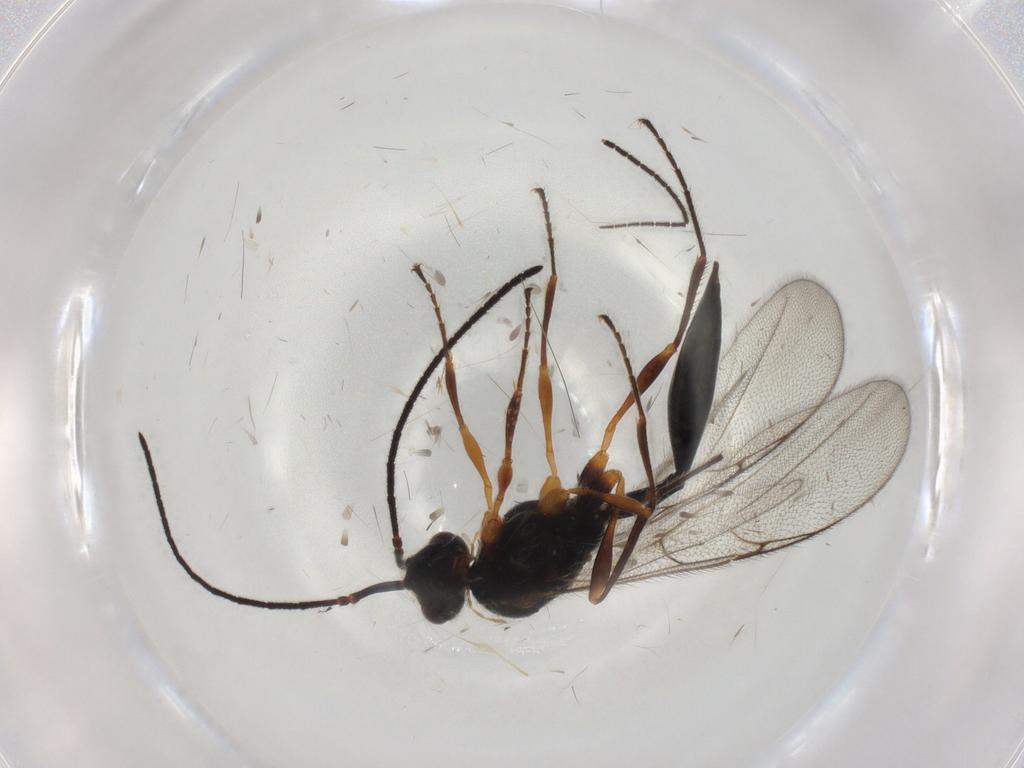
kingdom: Animalia
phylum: Arthropoda
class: Insecta
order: Hymenoptera
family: Diapriidae
